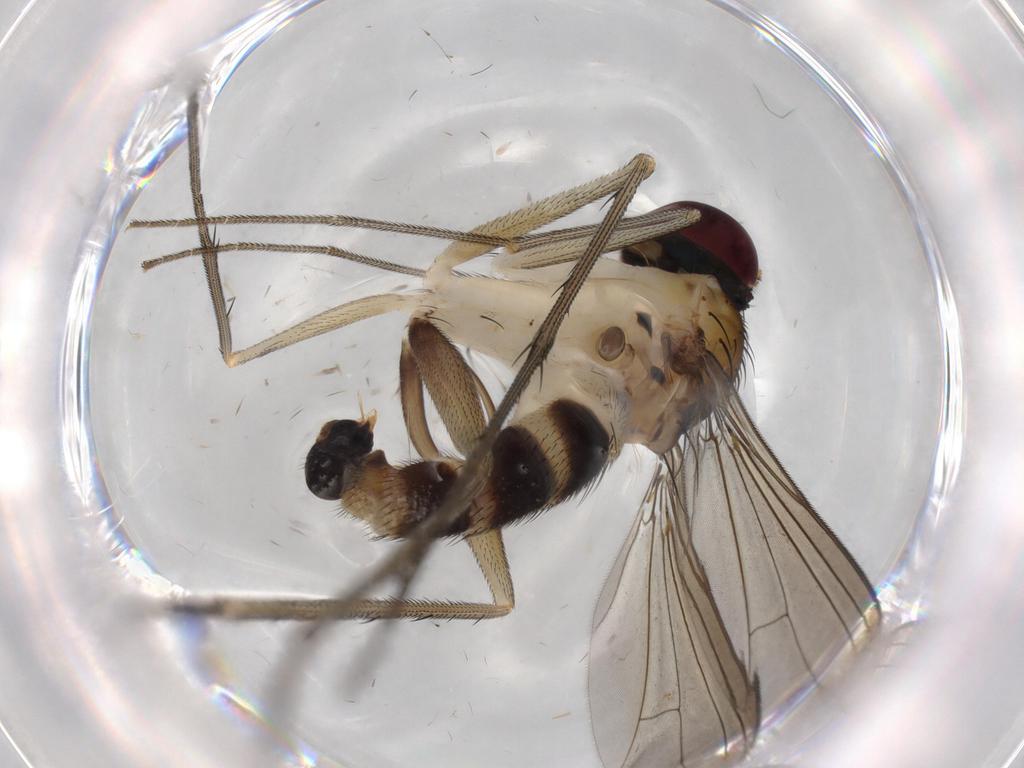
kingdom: Animalia
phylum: Arthropoda
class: Insecta
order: Diptera
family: Dolichopodidae
